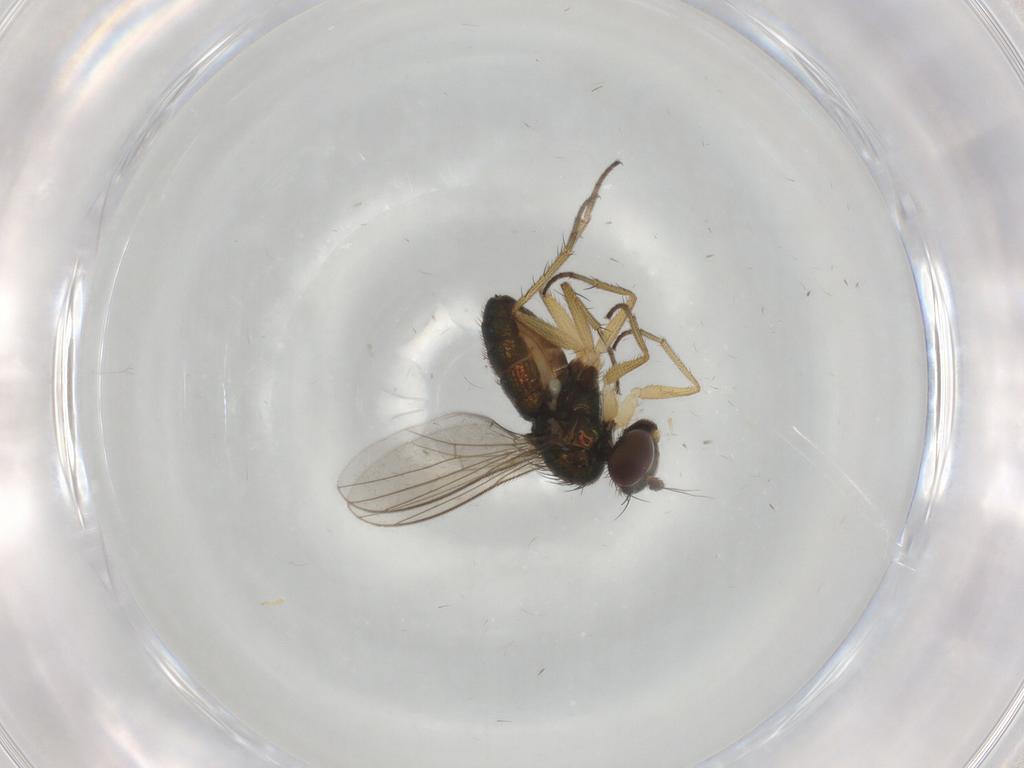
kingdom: Animalia
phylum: Arthropoda
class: Insecta
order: Diptera
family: Dolichopodidae
